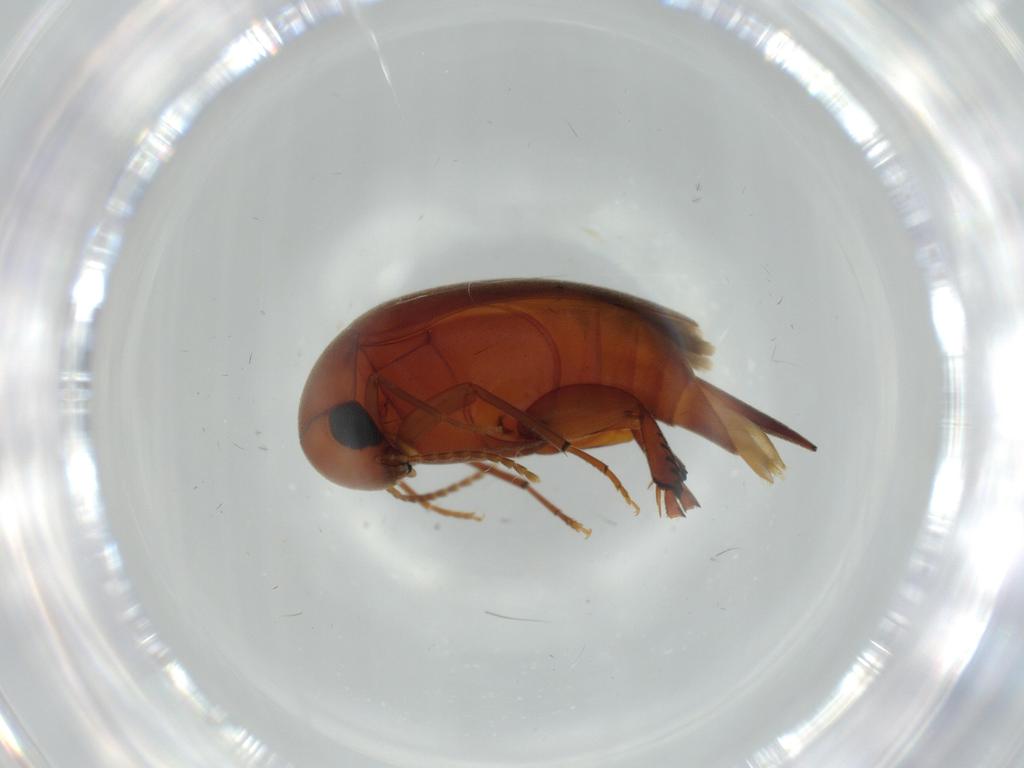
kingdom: Animalia
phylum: Arthropoda
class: Insecta
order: Coleoptera
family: Mordellidae
